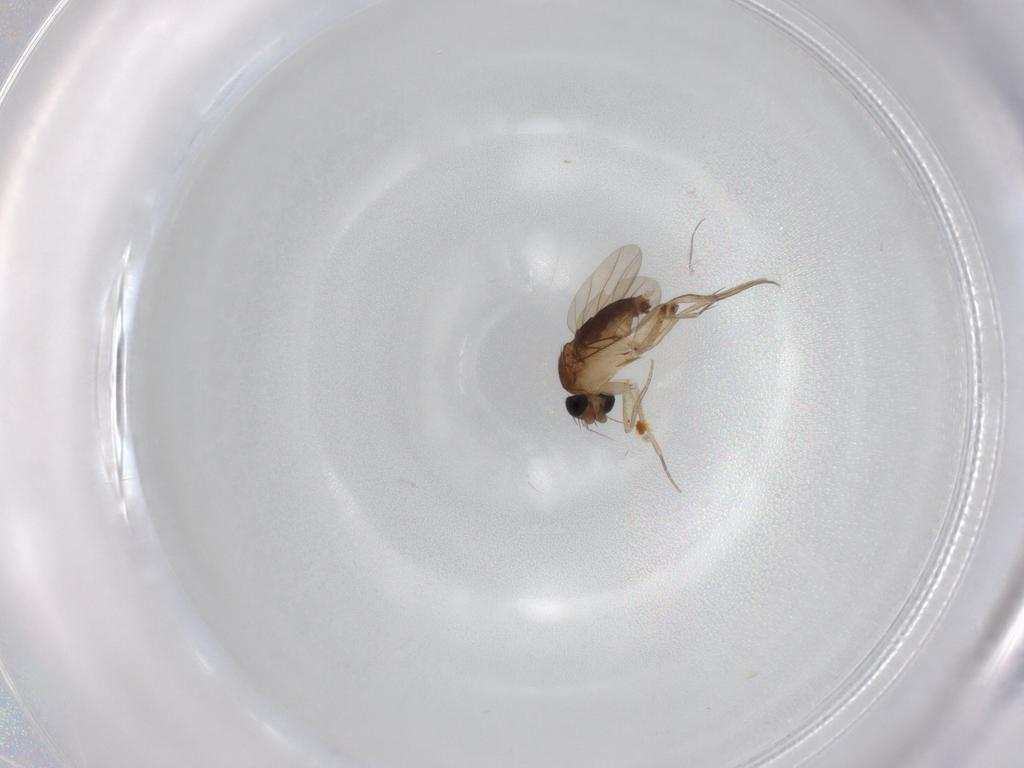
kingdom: Animalia
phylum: Arthropoda
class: Insecta
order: Diptera
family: Phoridae
